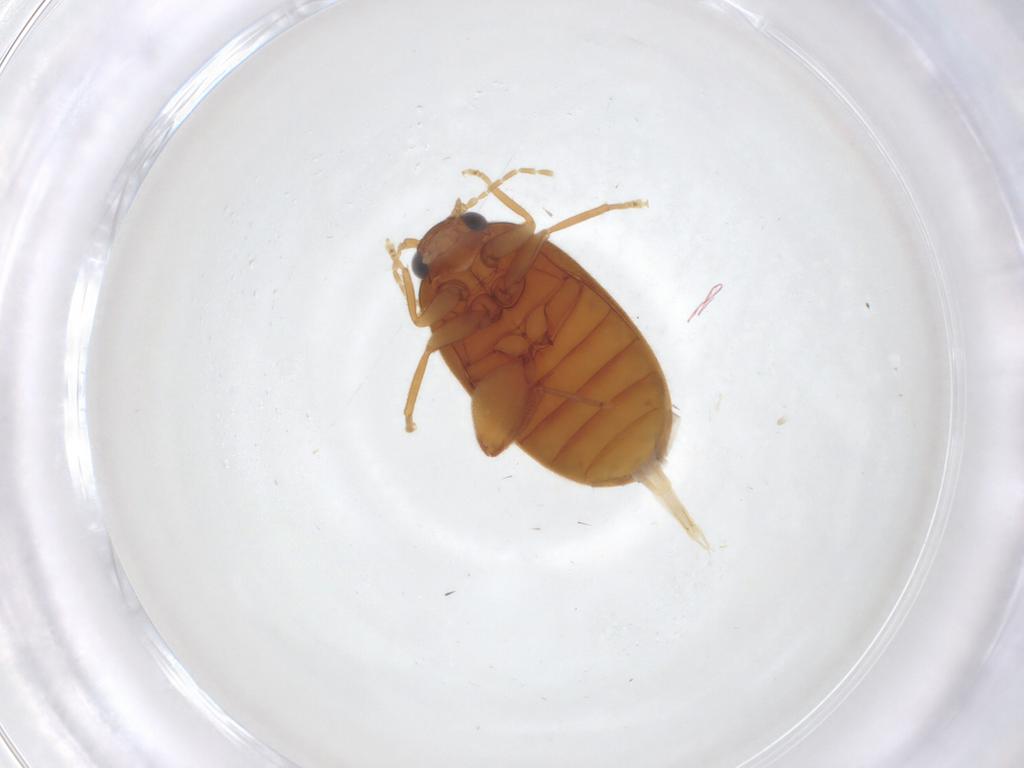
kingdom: Animalia
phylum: Arthropoda
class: Insecta
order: Coleoptera
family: Scirtidae
